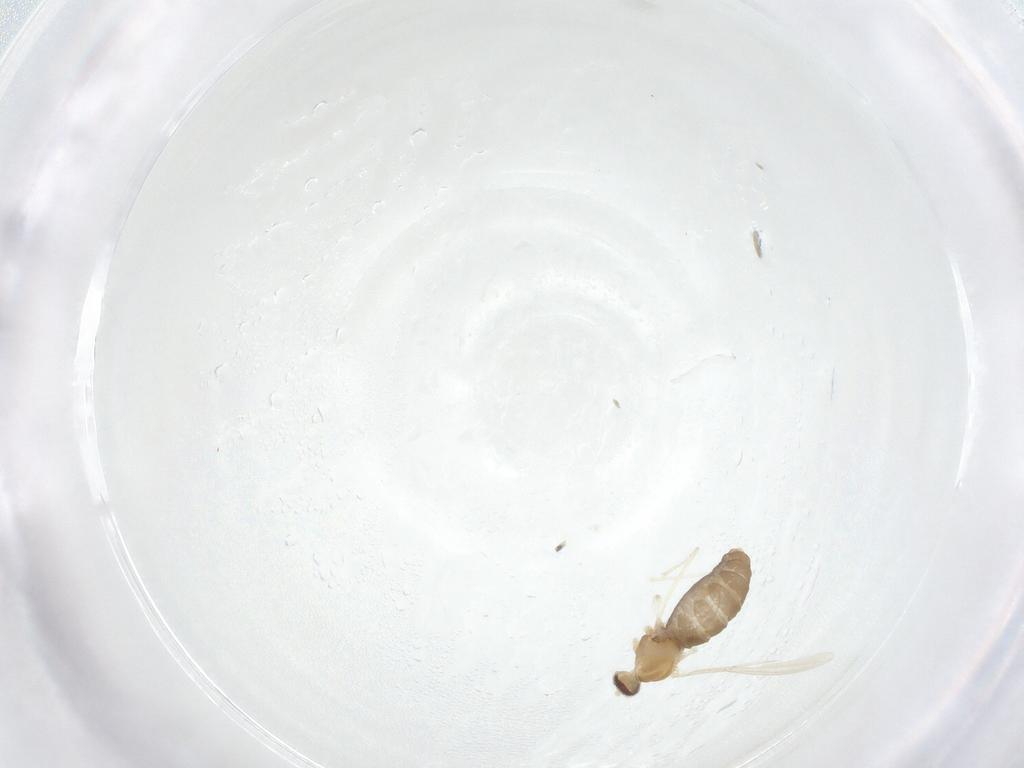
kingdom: Animalia
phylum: Arthropoda
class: Insecta
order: Diptera
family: Cecidomyiidae
